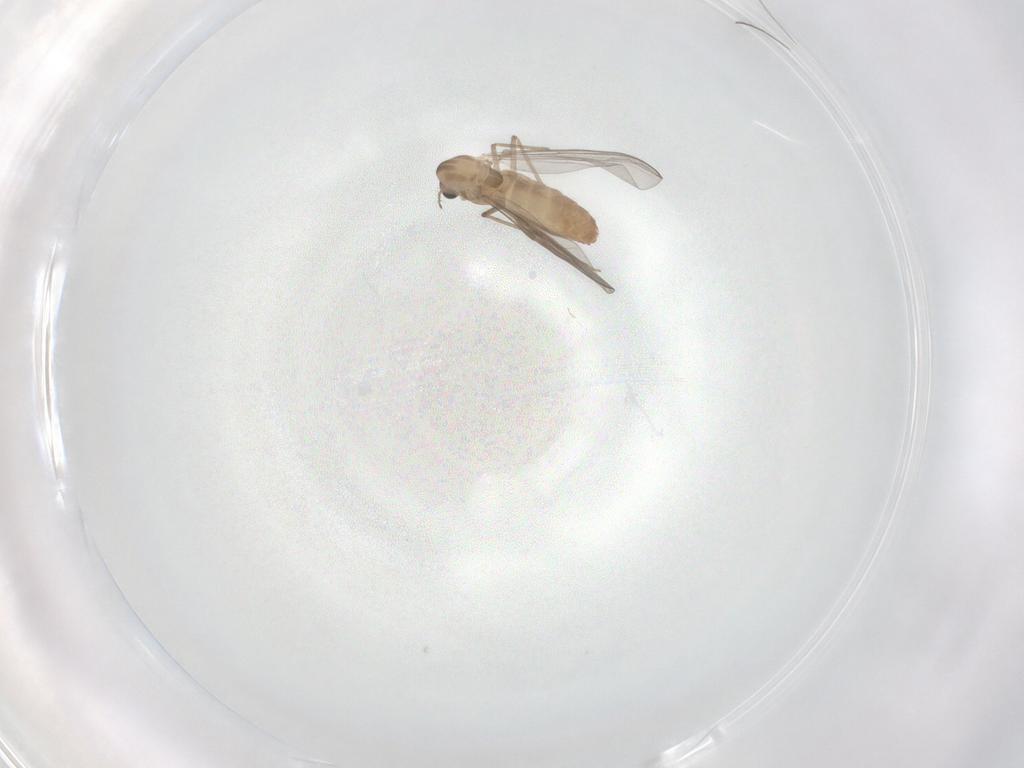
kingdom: Animalia
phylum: Arthropoda
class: Insecta
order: Diptera
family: Chironomidae
